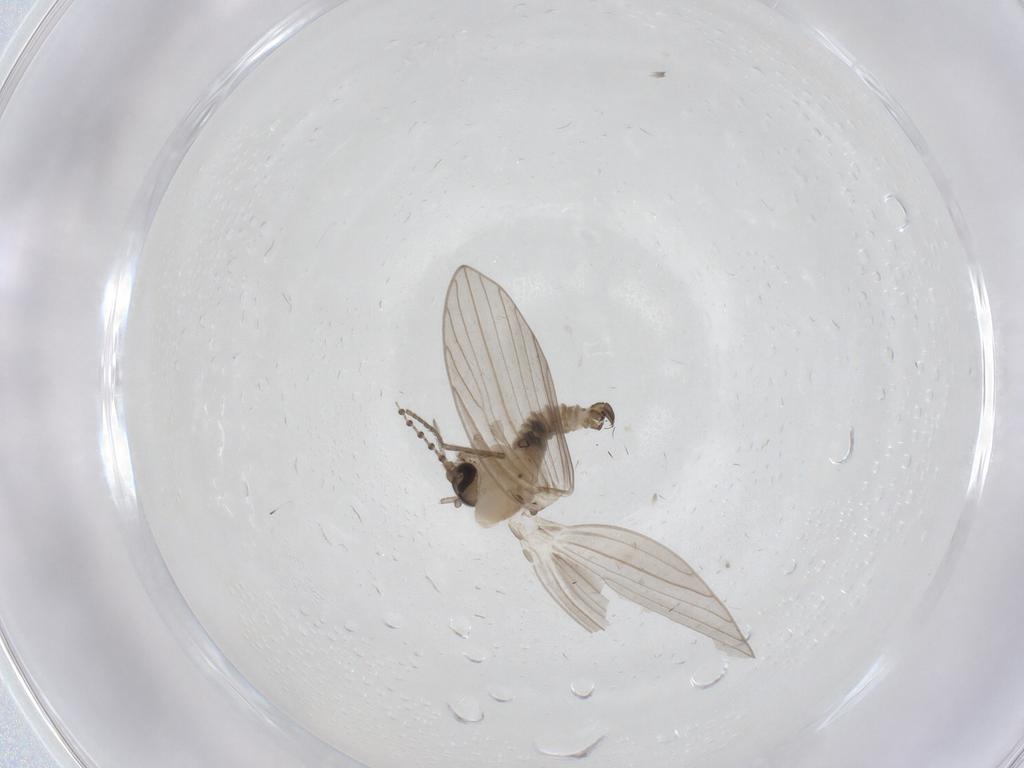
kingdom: Animalia
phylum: Arthropoda
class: Insecta
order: Diptera
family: Psychodidae
